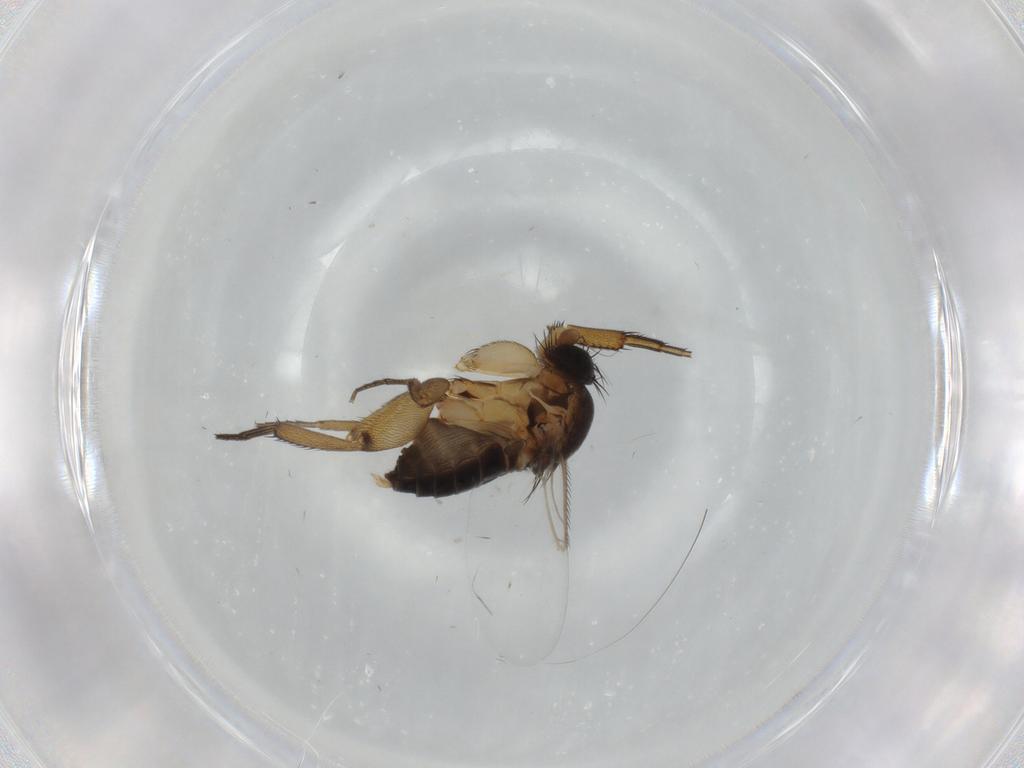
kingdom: Animalia
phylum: Arthropoda
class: Insecta
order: Diptera
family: Phoridae
